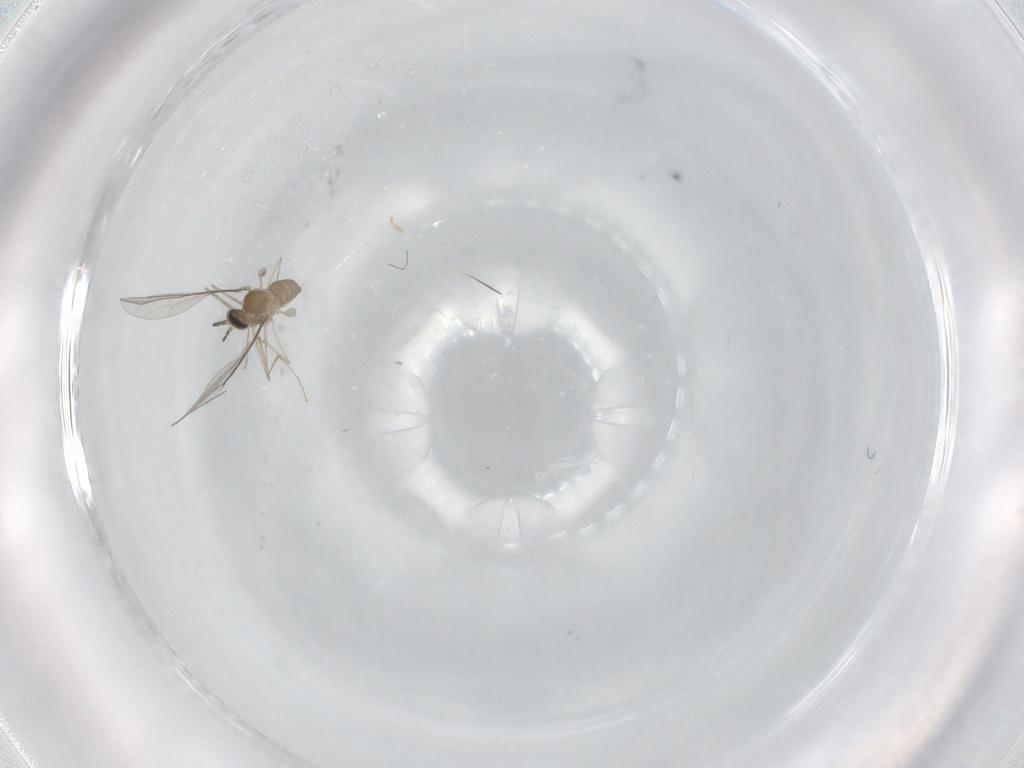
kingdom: Animalia
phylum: Arthropoda
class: Insecta
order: Diptera
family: Cecidomyiidae
